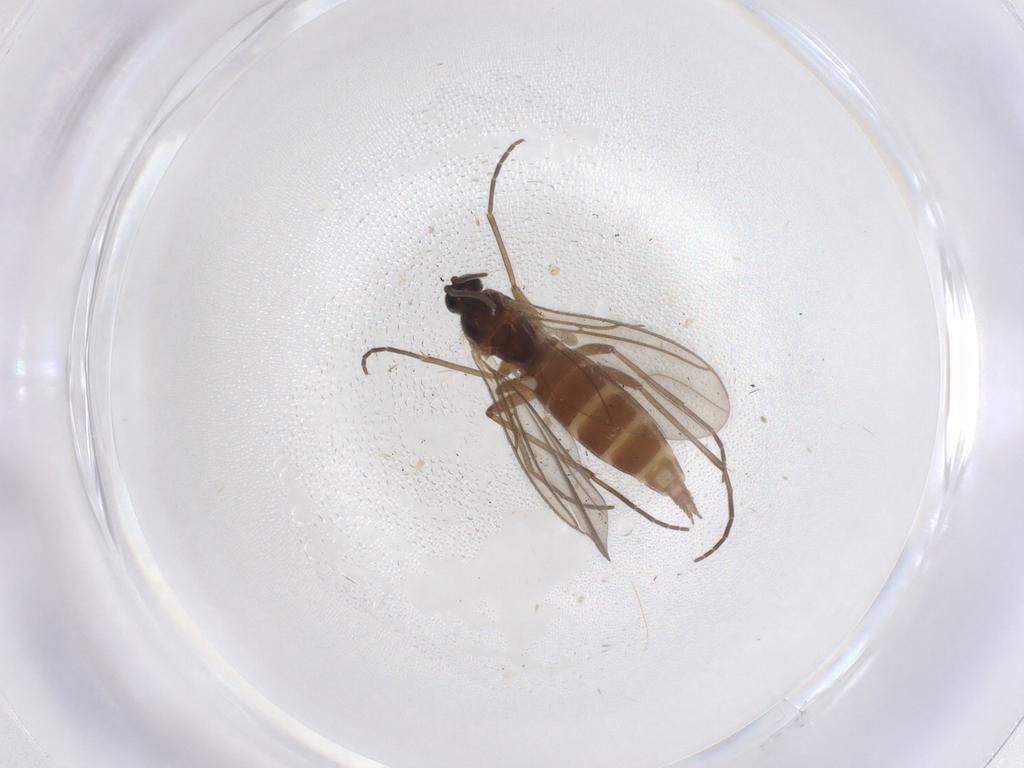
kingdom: Animalia
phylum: Arthropoda
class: Insecta
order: Diptera
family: Sciaridae
